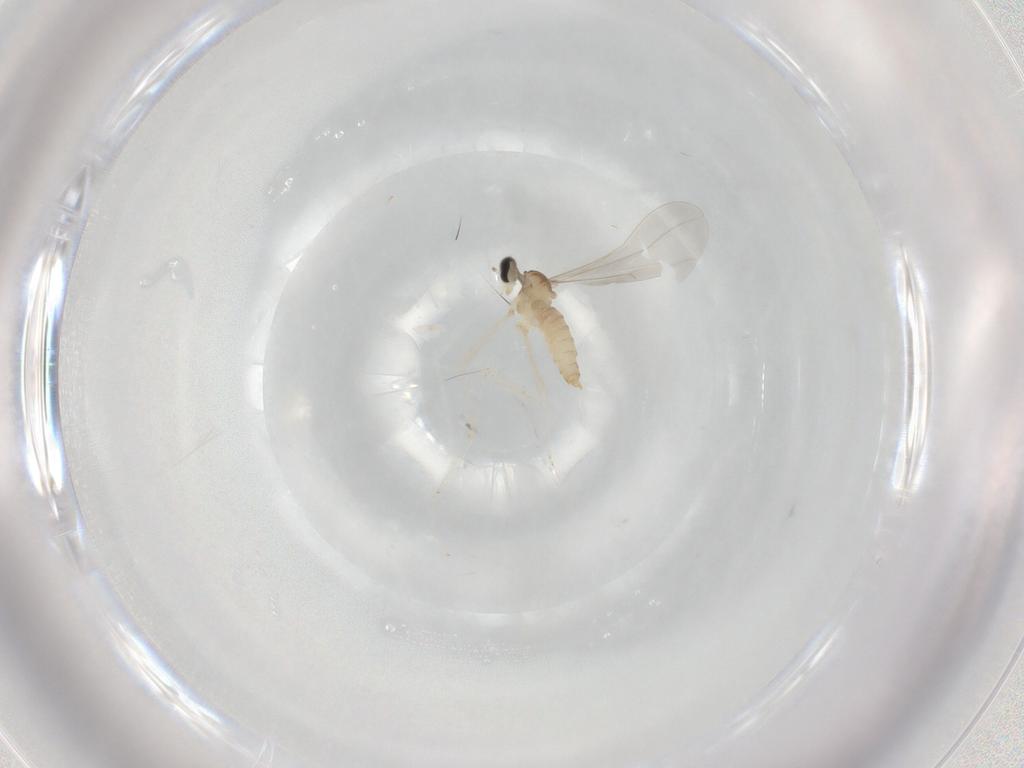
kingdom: Animalia
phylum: Arthropoda
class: Insecta
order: Diptera
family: Cecidomyiidae
